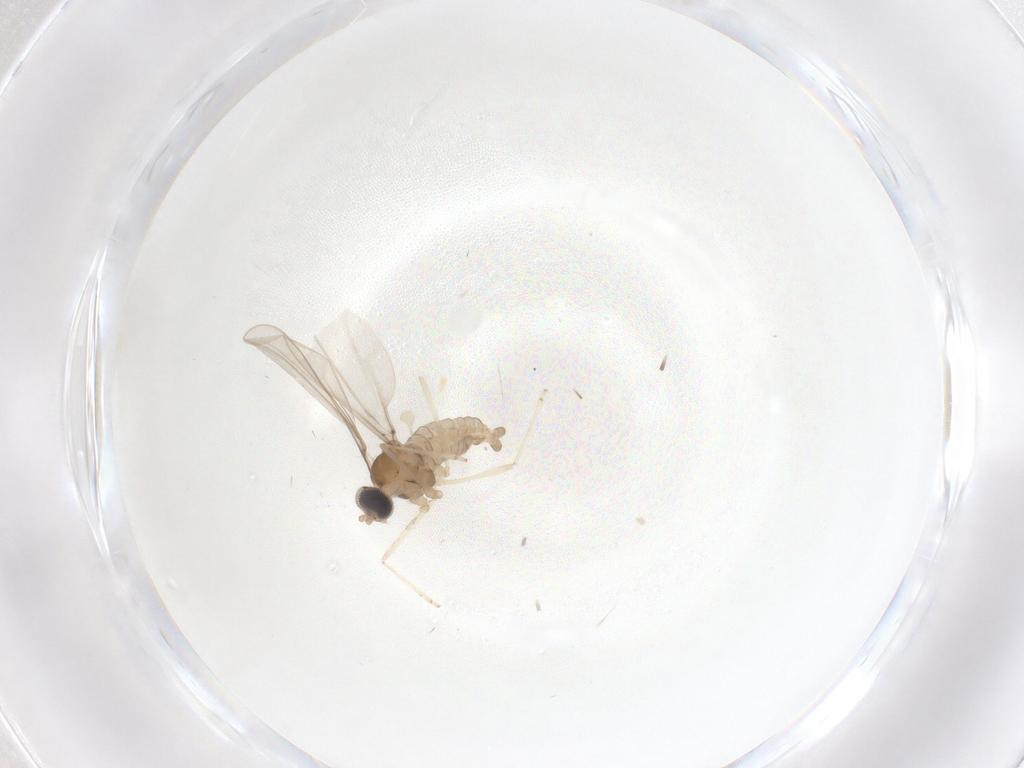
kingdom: Animalia
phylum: Arthropoda
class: Insecta
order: Diptera
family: Cecidomyiidae
